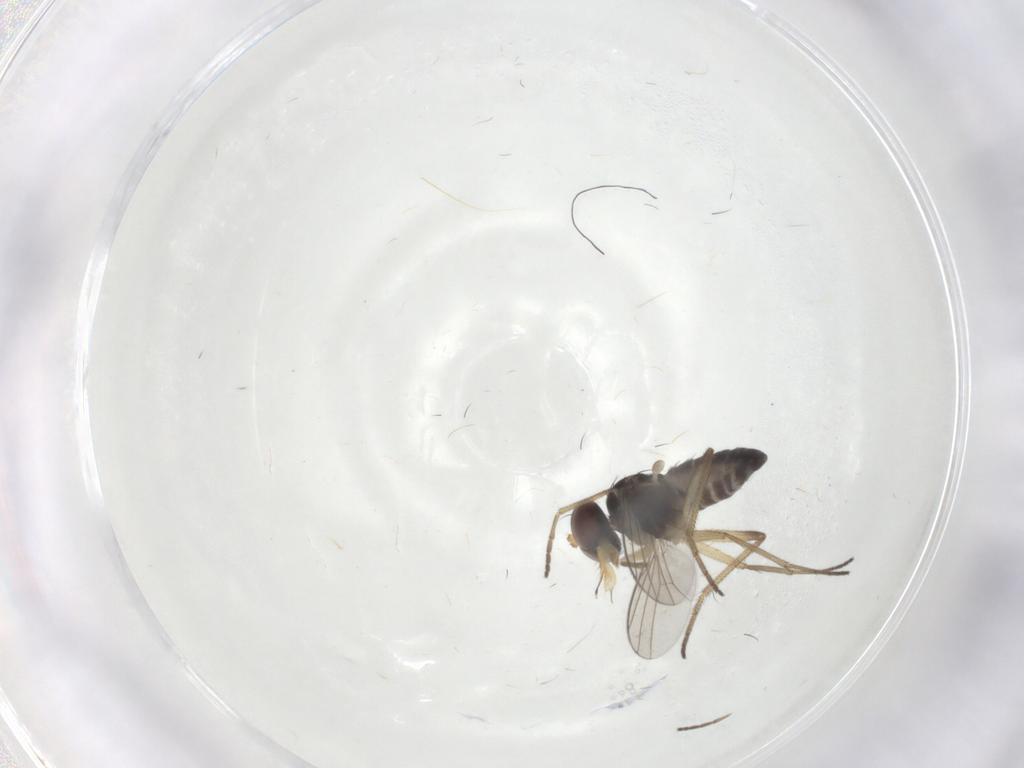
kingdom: Animalia
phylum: Arthropoda
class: Insecta
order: Diptera
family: Dolichopodidae
